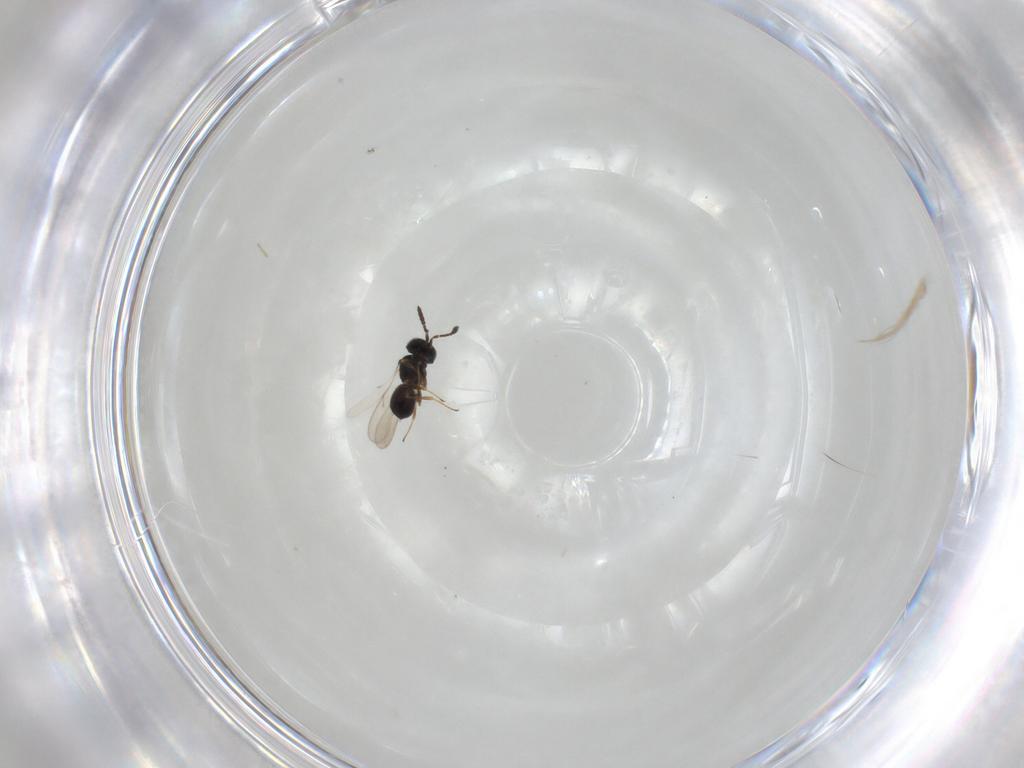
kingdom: Animalia
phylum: Arthropoda
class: Insecta
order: Hymenoptera
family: Scelionidae
